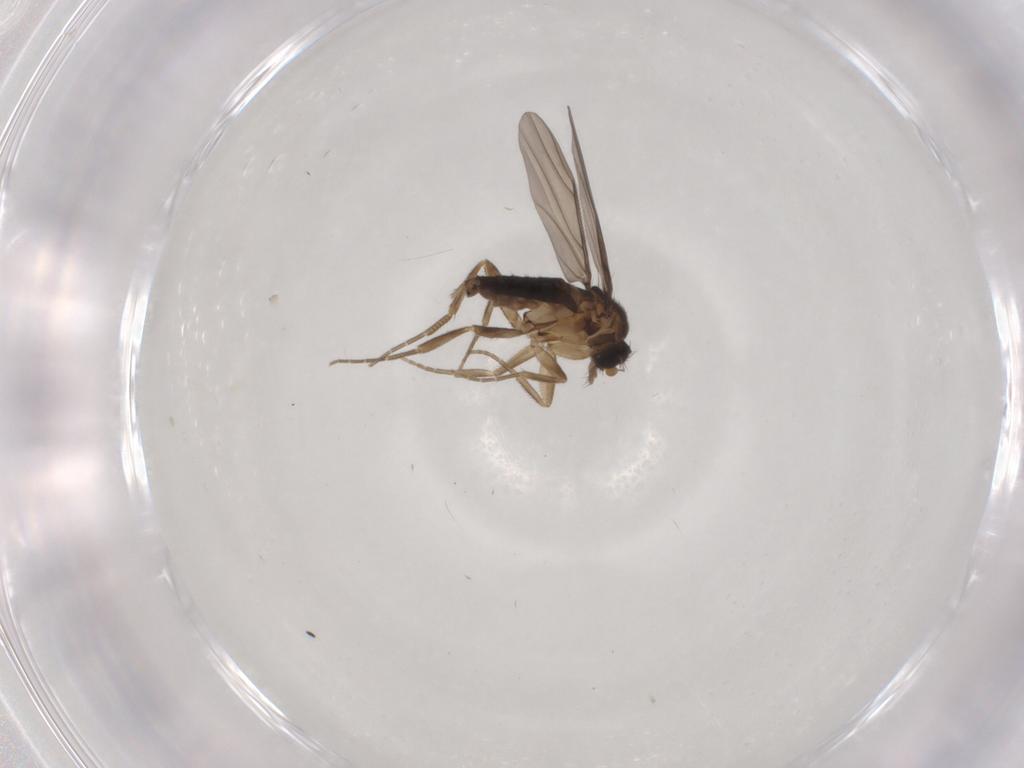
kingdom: Animalia
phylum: Arthropoda
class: Insecta
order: Diptera
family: Phoridae
